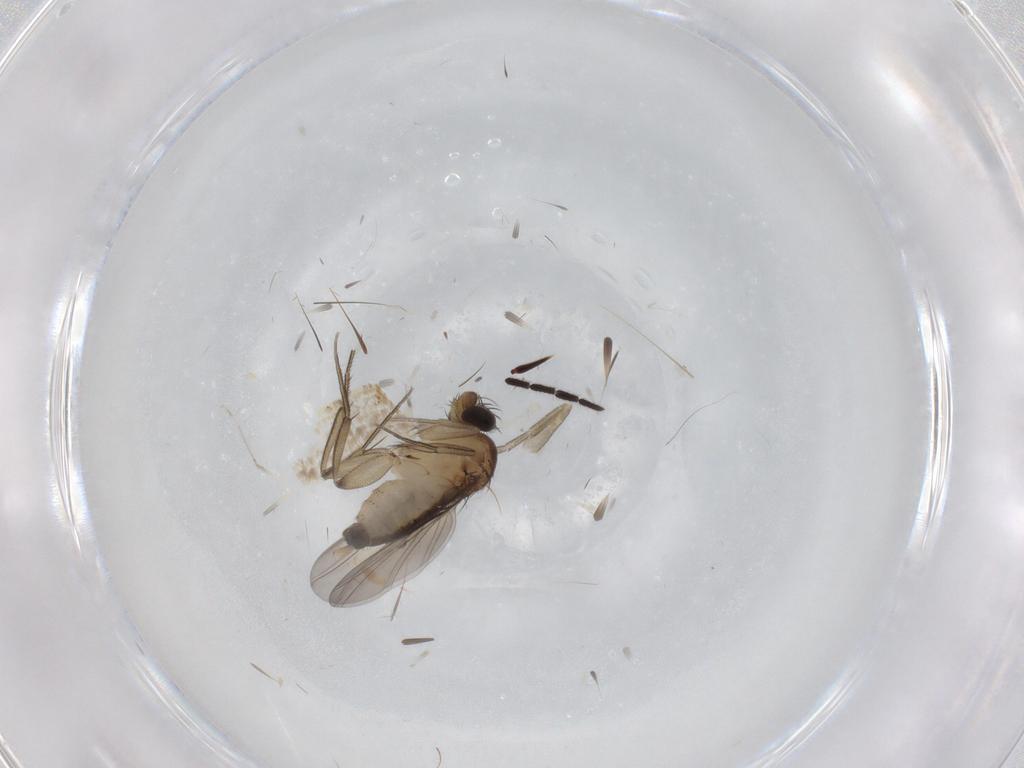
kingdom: Animalia
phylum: Arthropoda
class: Insecta
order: Diptera
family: Phoridae
